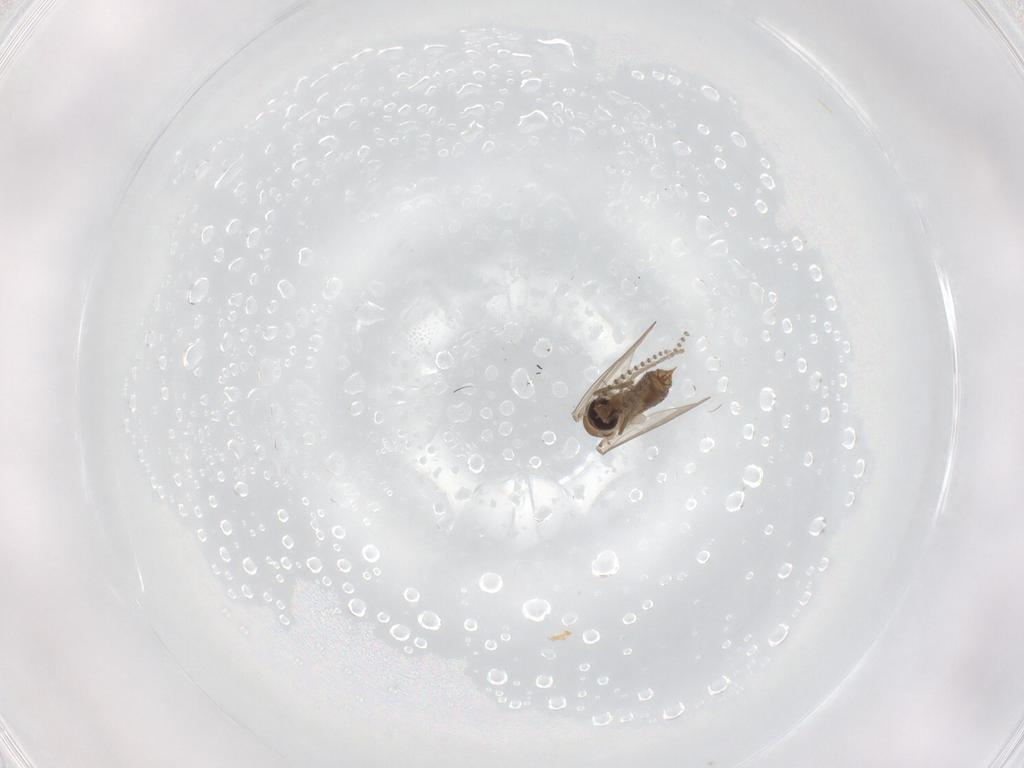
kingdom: Animalia
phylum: Arthropoda
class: Insecta
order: Diptera
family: Psychodidae
